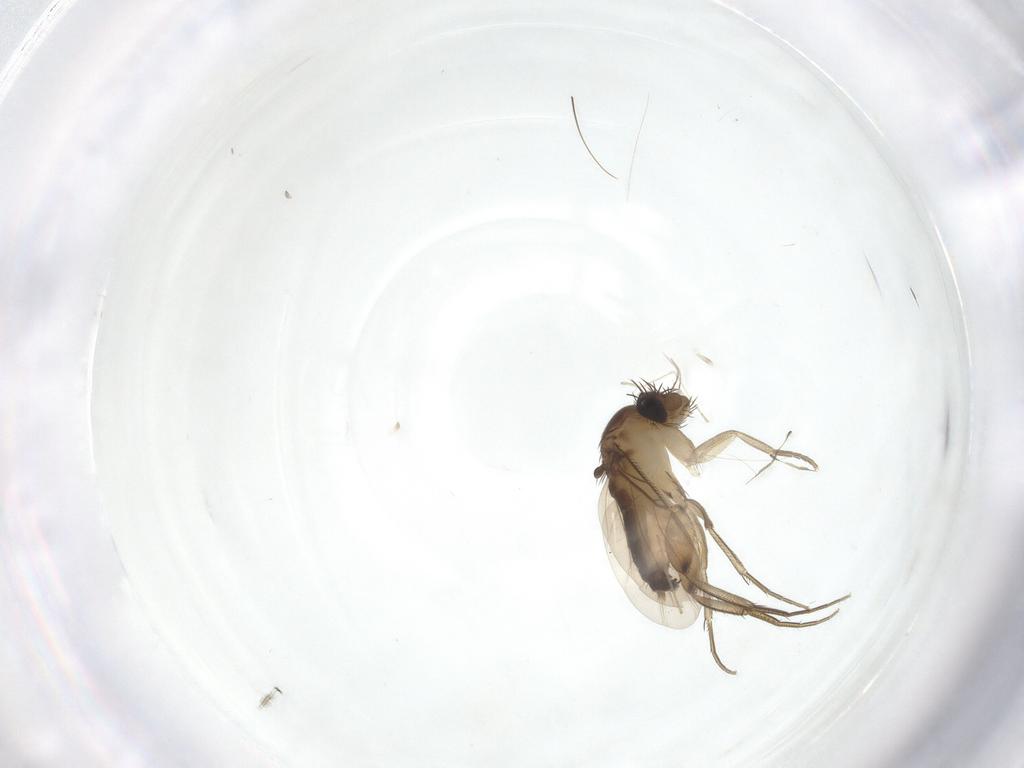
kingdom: Animalia
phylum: Arthropoda
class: Insecta
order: Diptera
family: Phoridae
